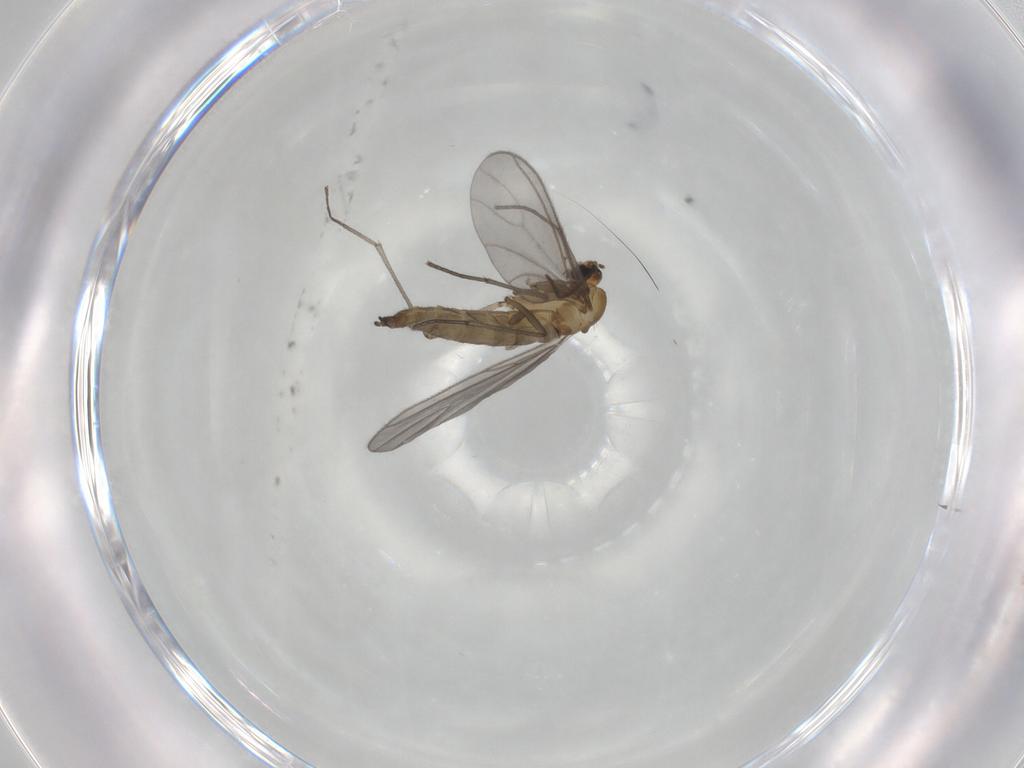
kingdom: Animalia
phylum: Arthropoda
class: Insecta
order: Diptera
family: Sciaridae
